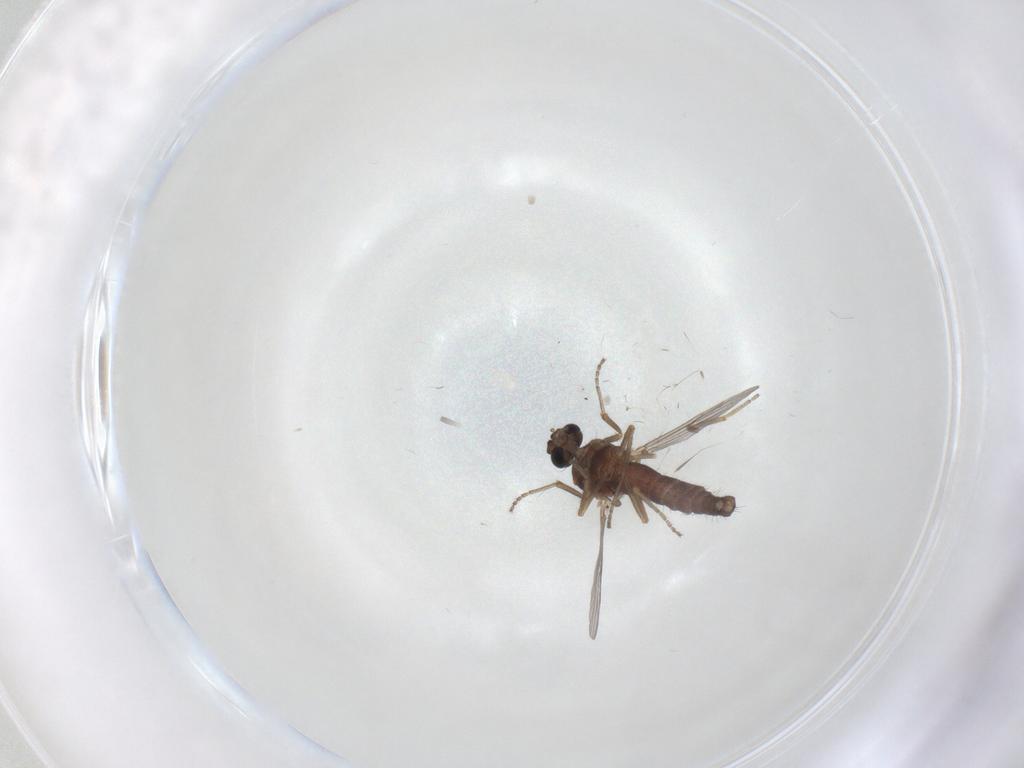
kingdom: Animalia
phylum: Arthropoda
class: Insecta
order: Diptera
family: Ceratopogonidae
